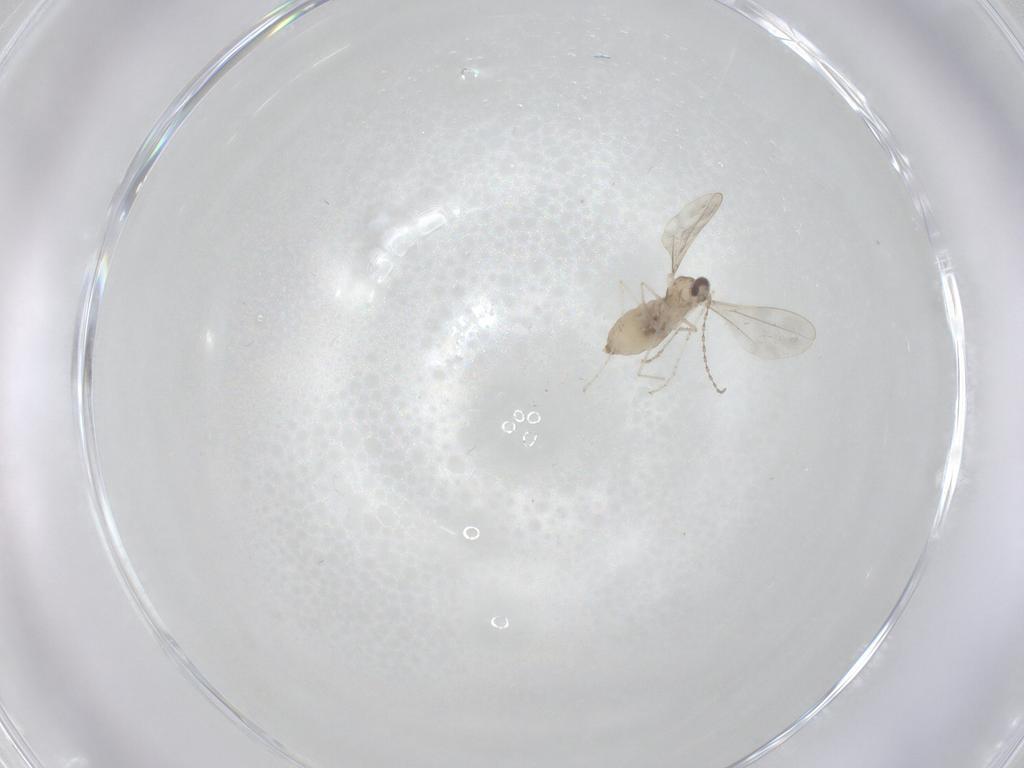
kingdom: Animalia
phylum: Arthropoda
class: Insecta
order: Diptera
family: Cecidomyiidae
